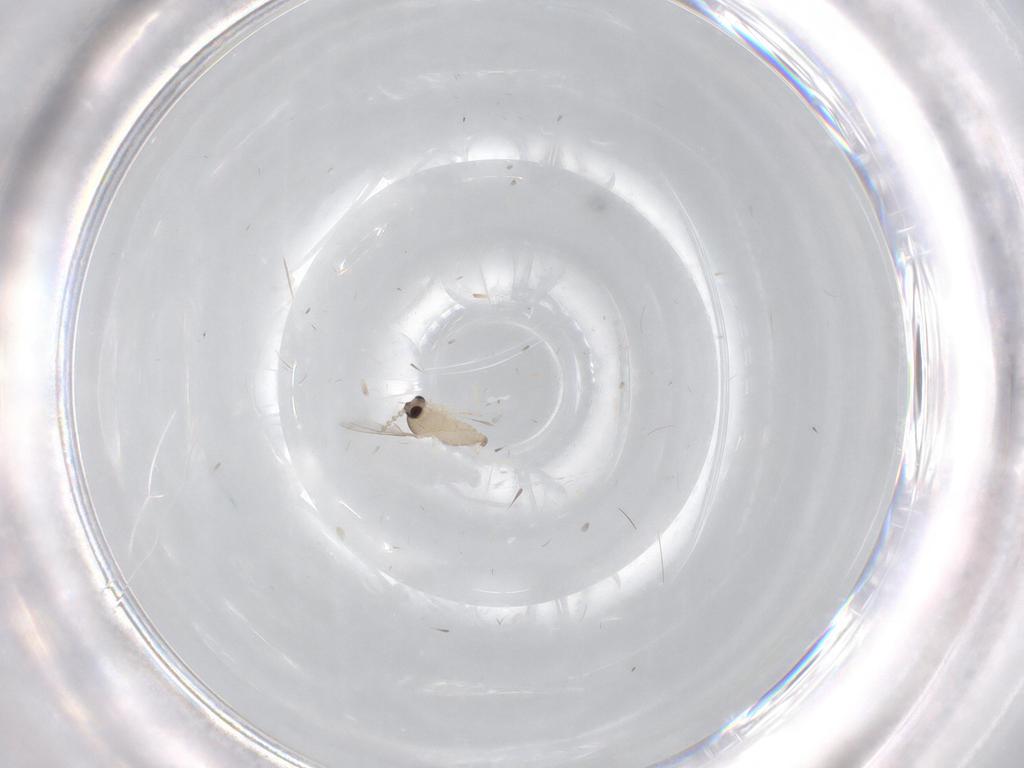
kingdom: Animalia
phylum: Arthropoda
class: Insecta
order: Diptera
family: Cecidomyiidae
